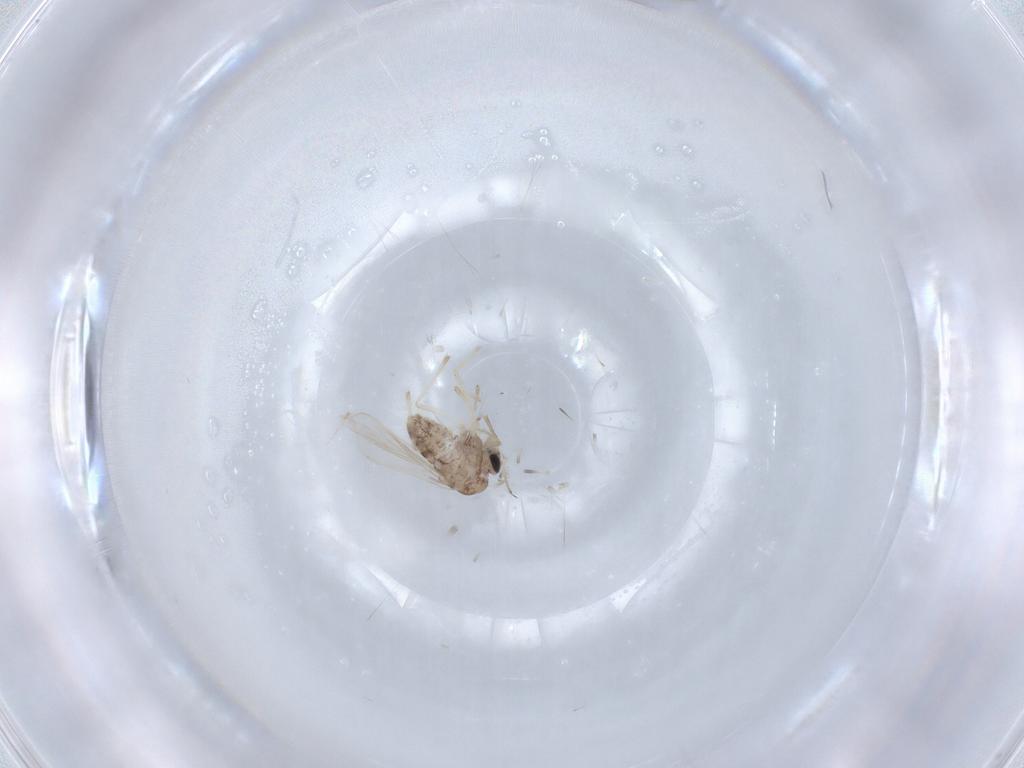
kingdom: Animalia
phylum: Arthropoda
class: Insecta
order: Diptera
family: Chironomidae
